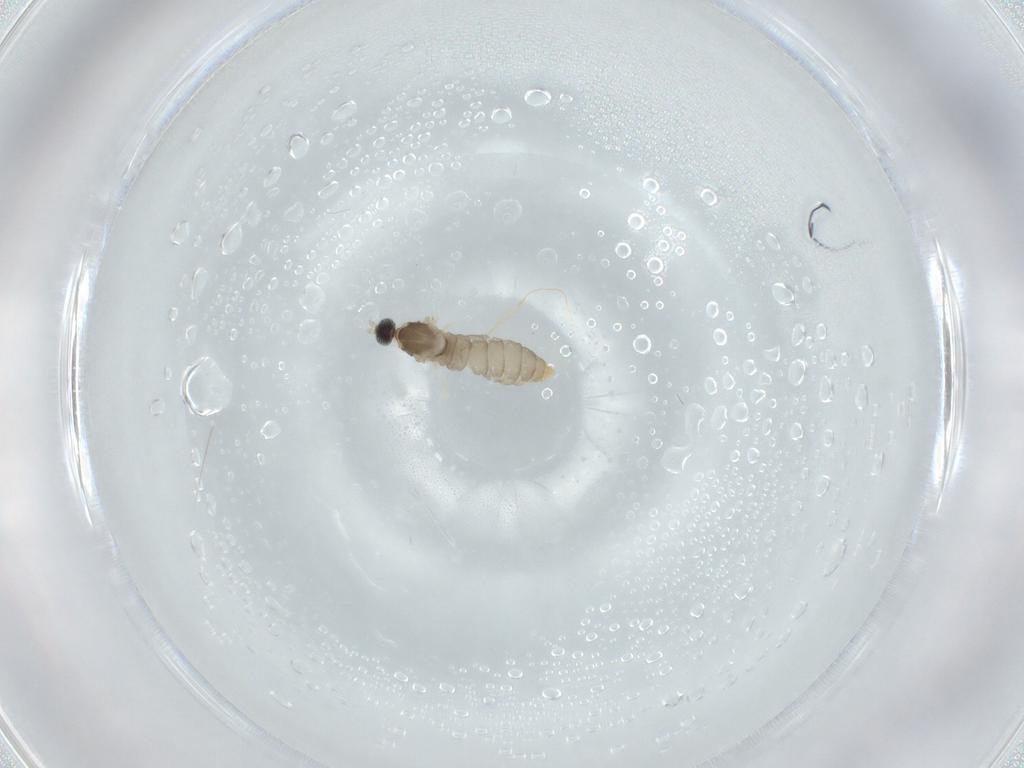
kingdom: Animalia
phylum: Arthropoda
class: Insecta
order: Diptera
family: Cecidomyiidae
